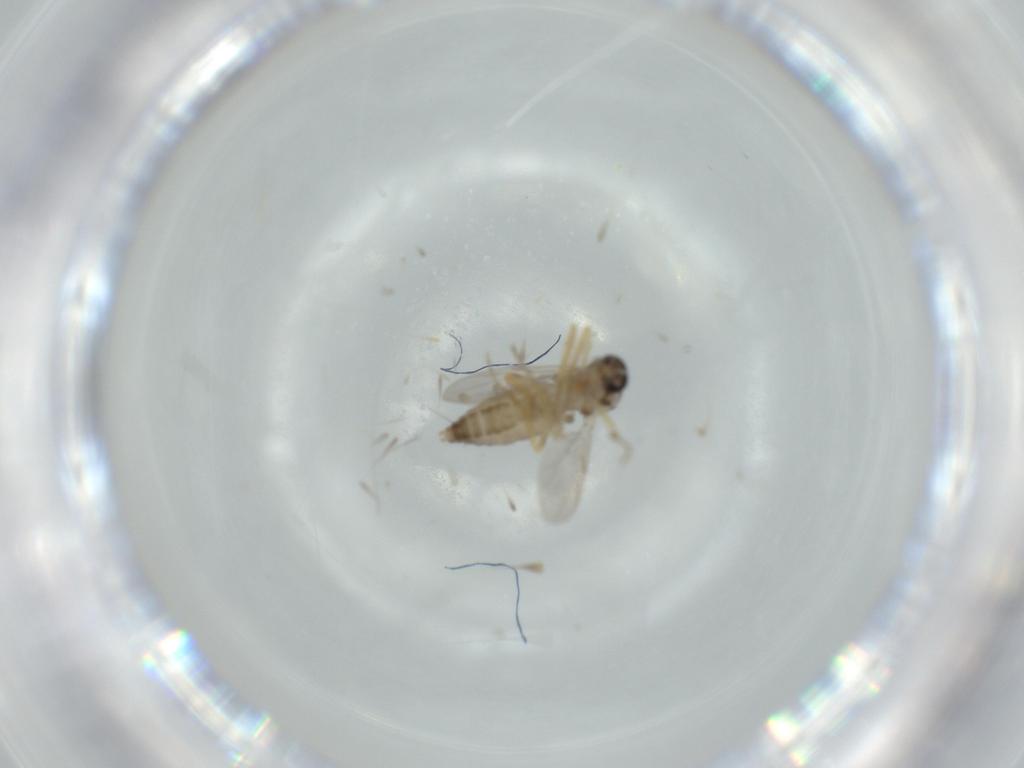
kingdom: Animalia
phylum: Arthropoda
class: Insecta
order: Diptera
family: Ceratopogonidae
